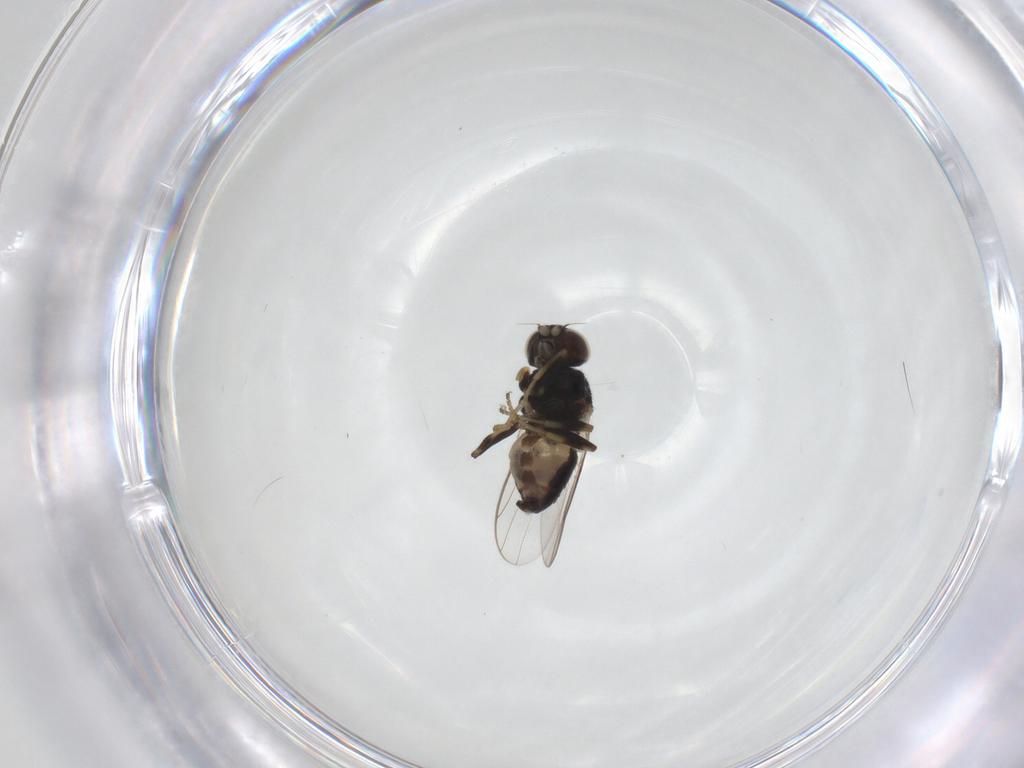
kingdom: Animalia
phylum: Arthropoda
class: Insecta
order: Diptera
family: Chloropidae
